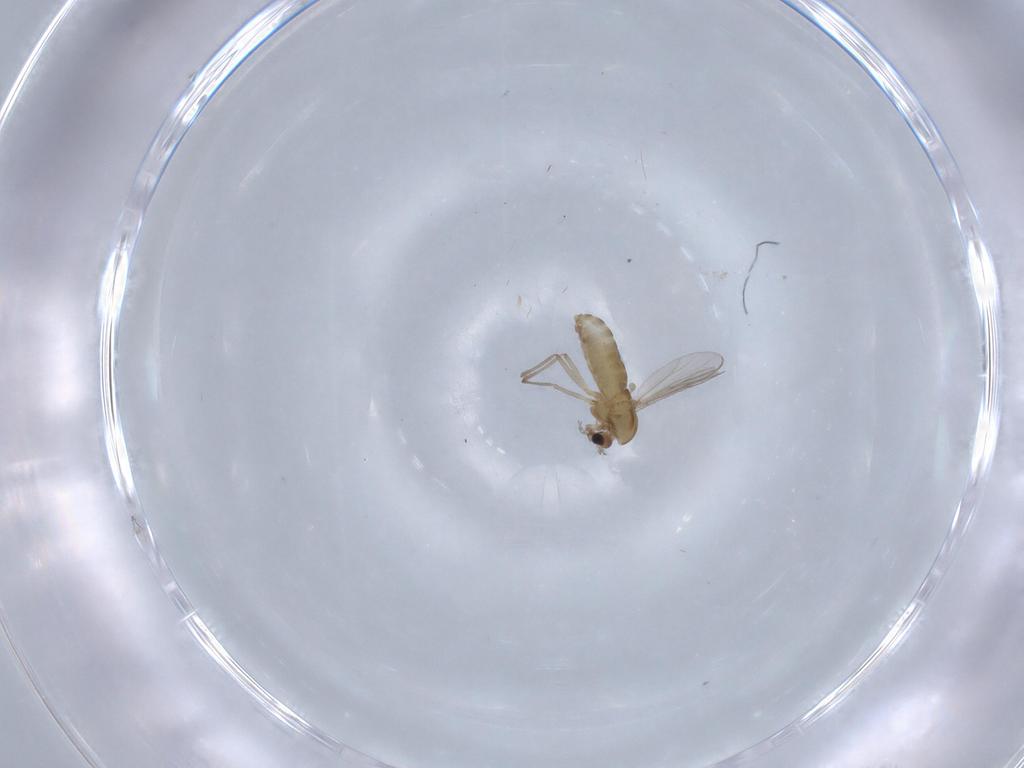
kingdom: Animalia
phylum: Arthropoda
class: Insecta
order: Diptera
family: Chironomidae
